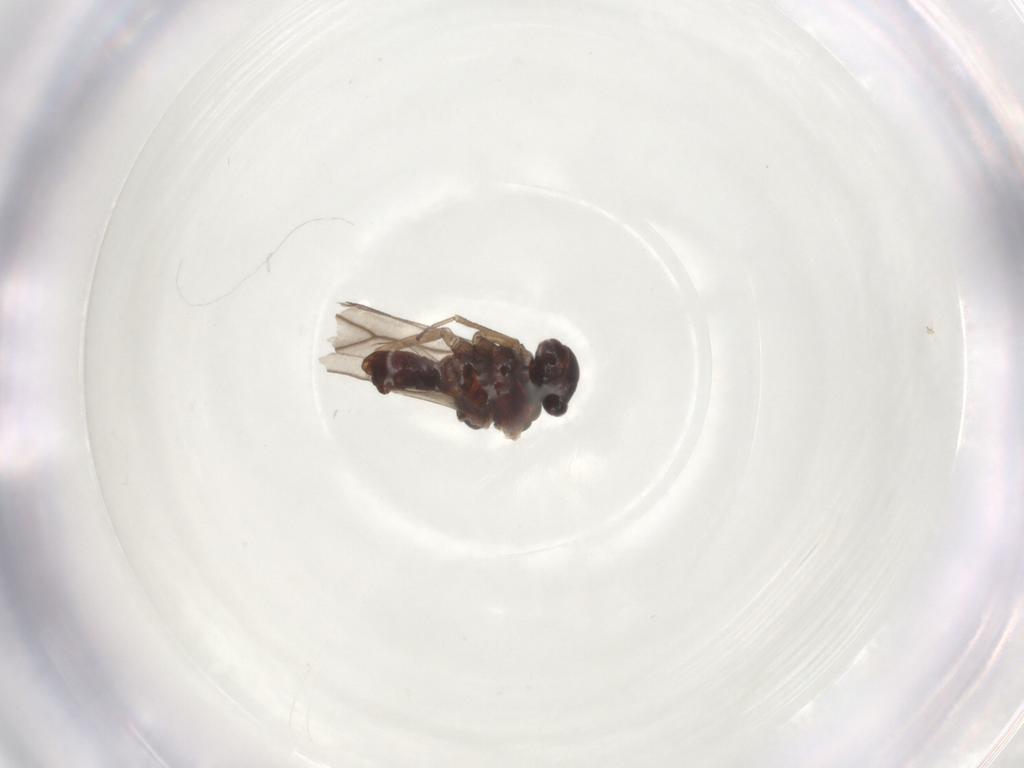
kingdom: Animalia
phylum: Arthropoda
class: Insecta
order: Psocodea
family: Trichopsocidae
